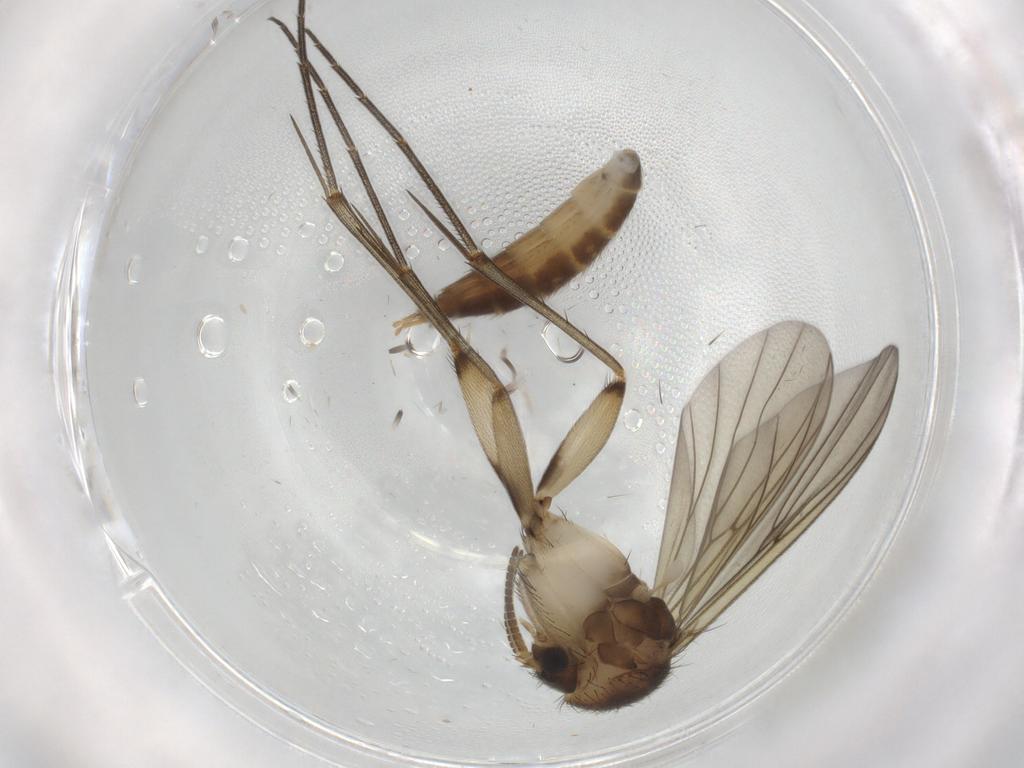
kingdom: Animalia
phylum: Arthropoda
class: Insecta
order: Diptera
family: Mycetophilidae
